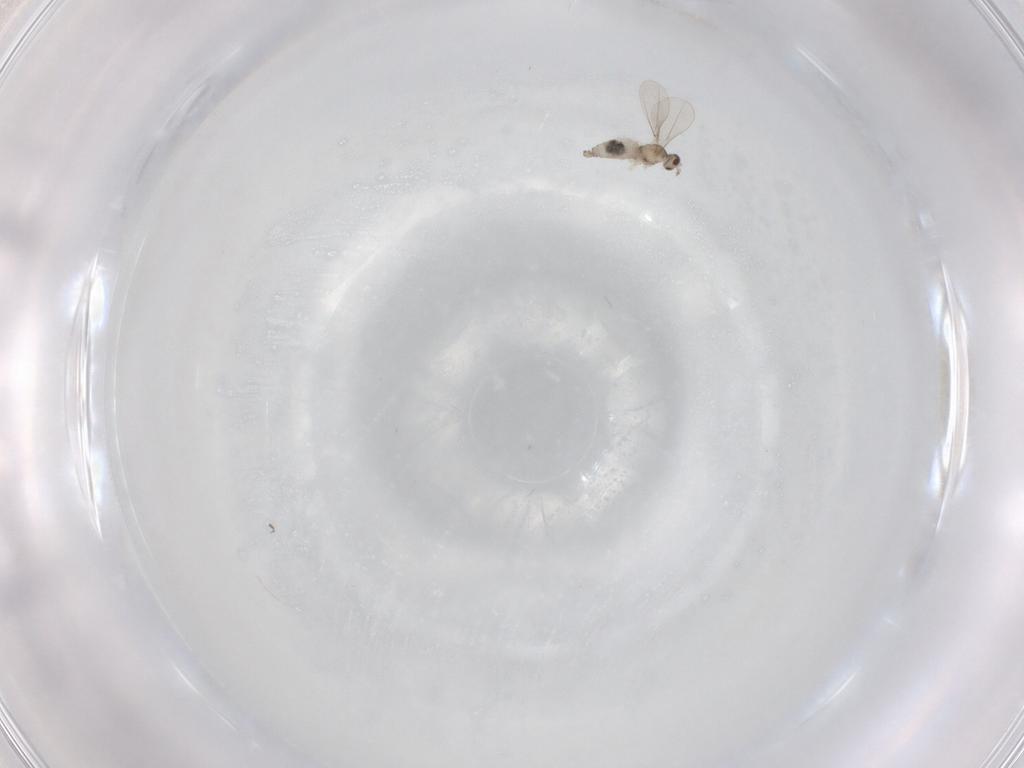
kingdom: Animalia
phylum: Arthropoda
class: Insecta
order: Diptera
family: Cecidomyiidae
